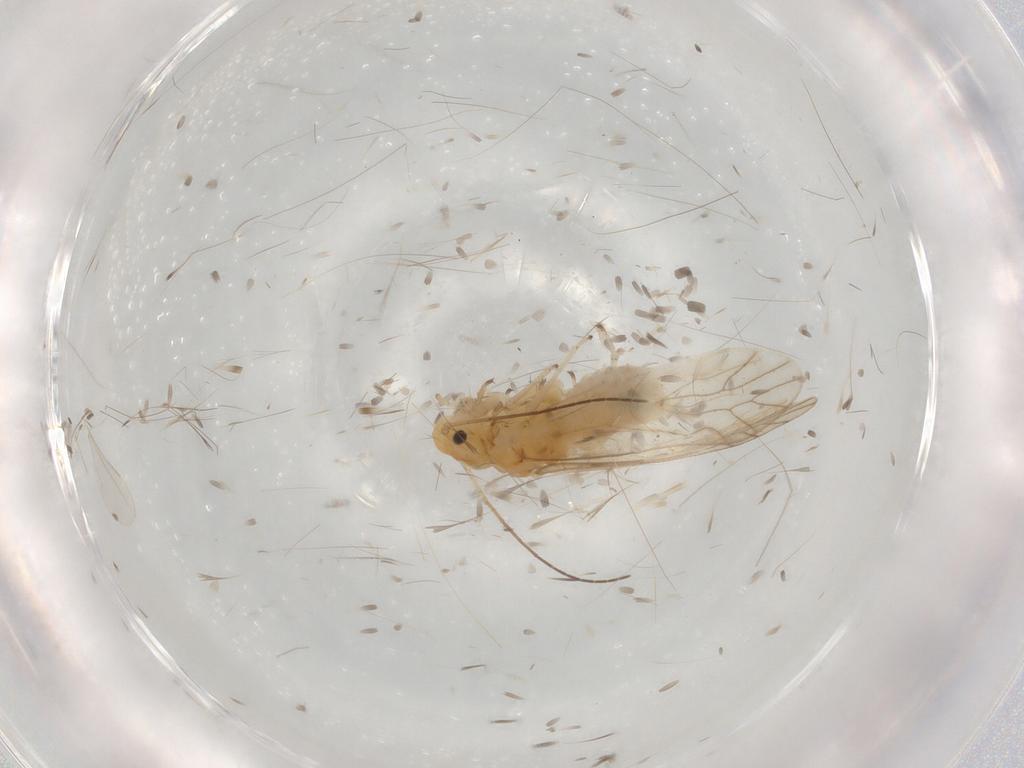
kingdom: Animalia
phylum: Arthropoda
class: Insecta
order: Psocodea
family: Caeciliusidae
